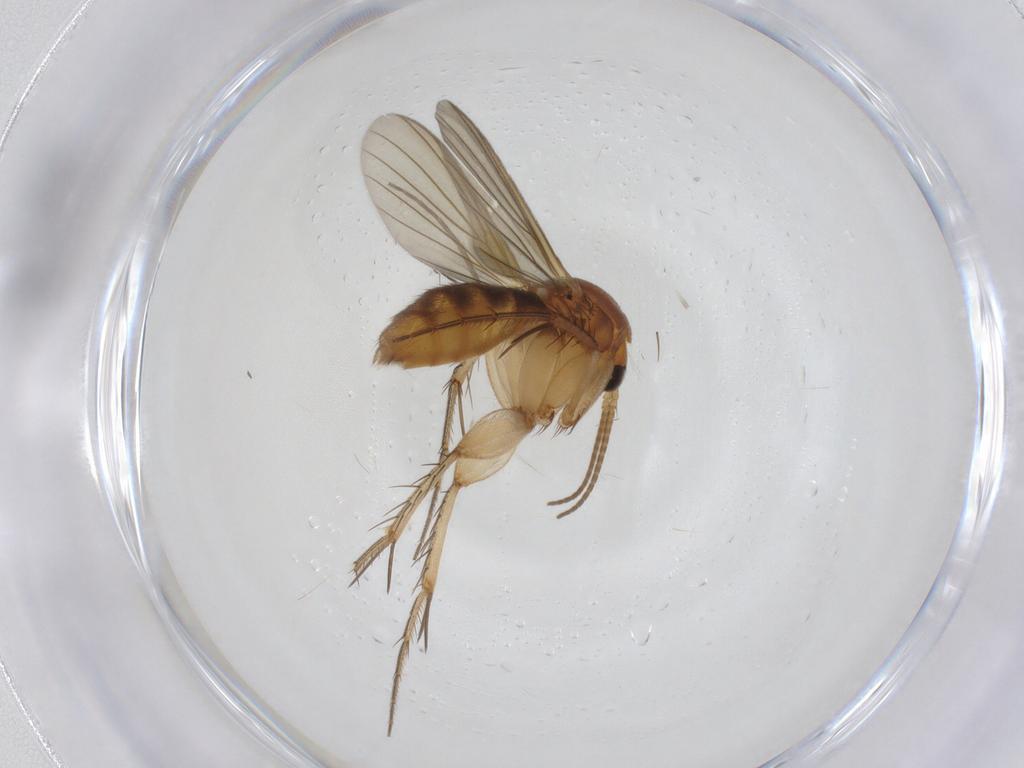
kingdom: Animalia
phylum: Arthropoda
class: Insecta
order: Diptera
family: Mycetophilidae
